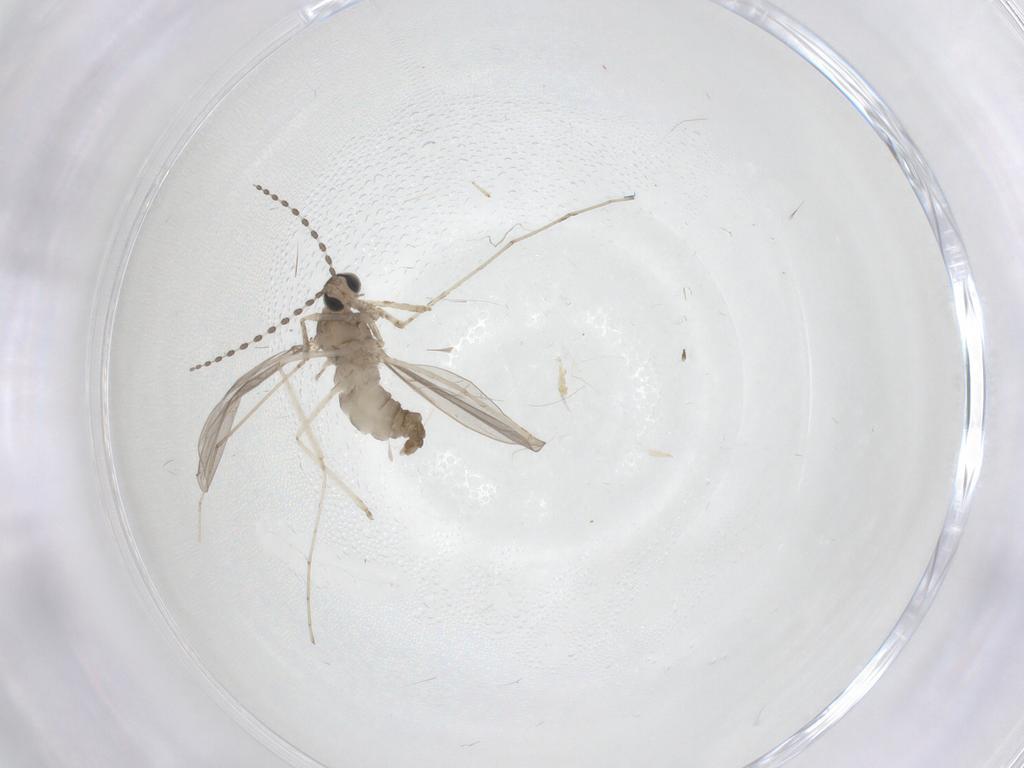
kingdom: Animalia
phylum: Arthropoda
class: Insecta
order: Diptera
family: Cecidomyiidae
